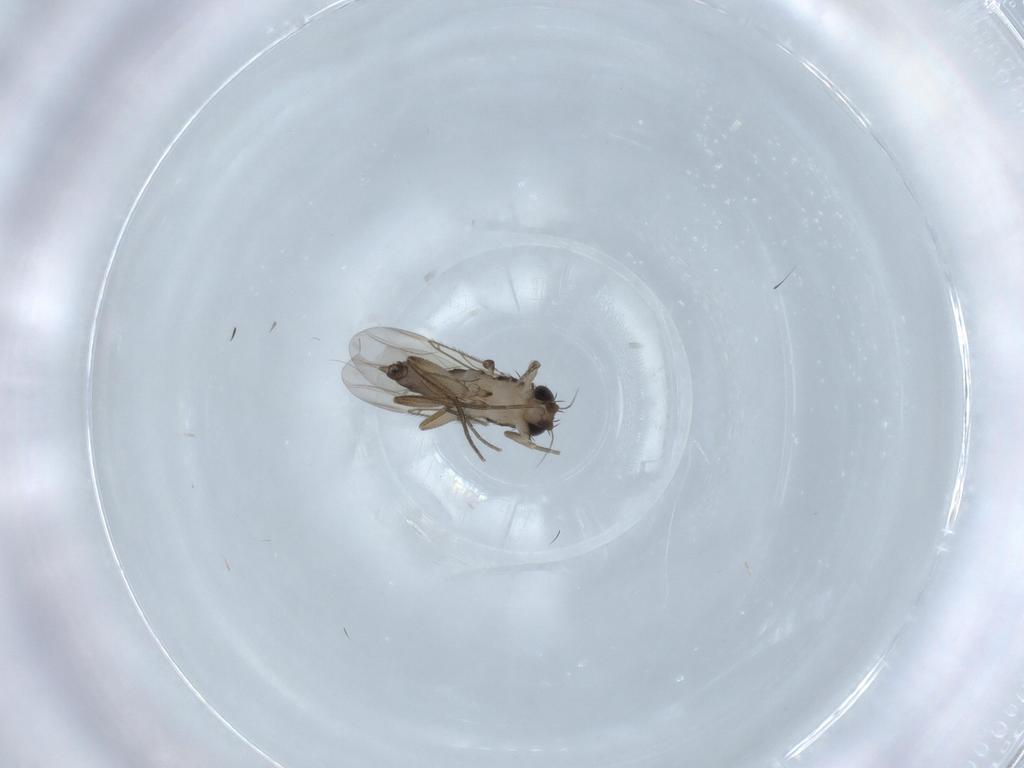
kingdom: Animalia
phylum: Arthropoda
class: Insecta
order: Diptera
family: Phoridae
